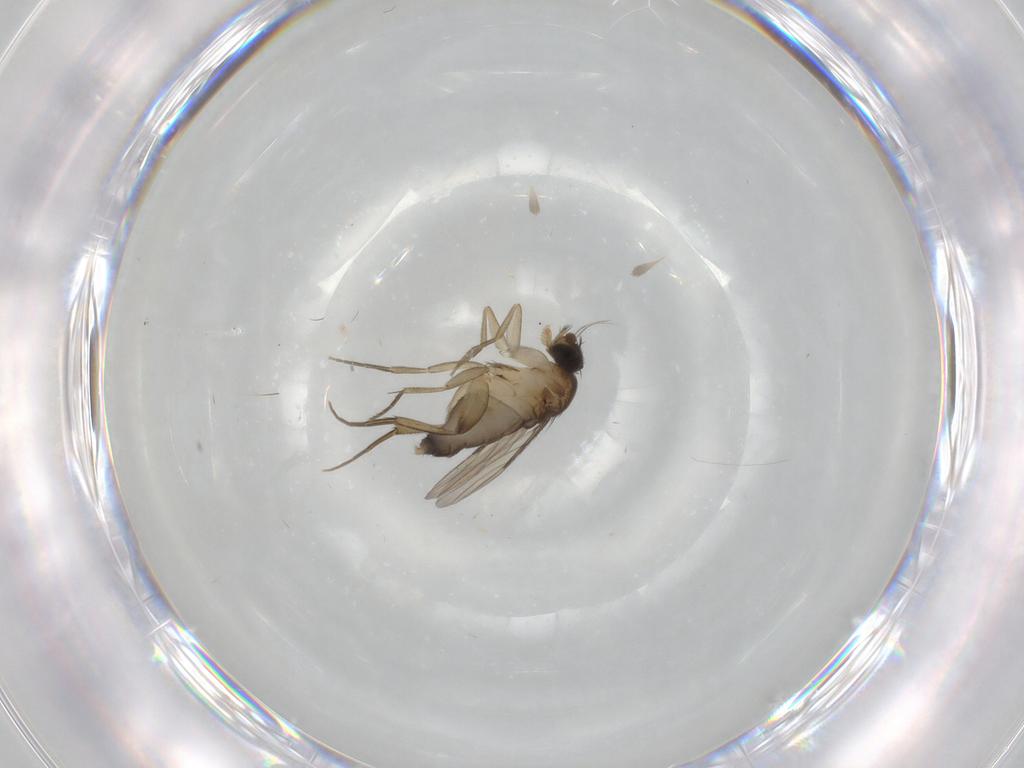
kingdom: Animalia
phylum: Arthropoda
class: Insecta
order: Diptera
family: Phoridae
